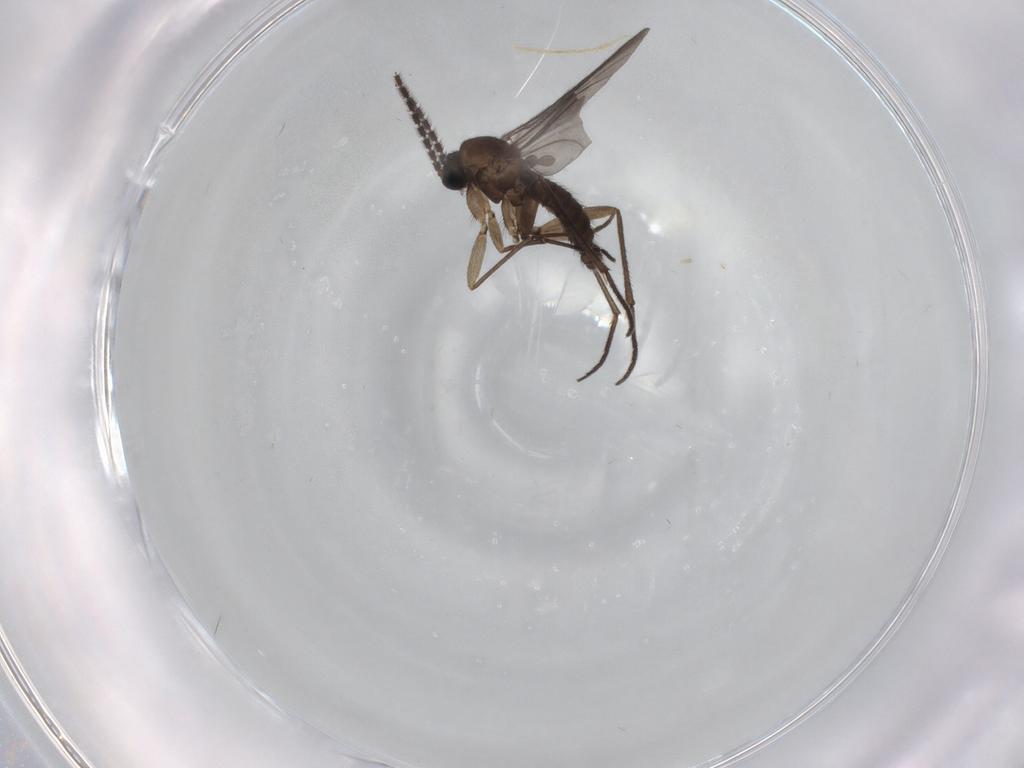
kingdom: Animalia
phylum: Arthropoda
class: Insecta
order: Diptera
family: Sciaridae
